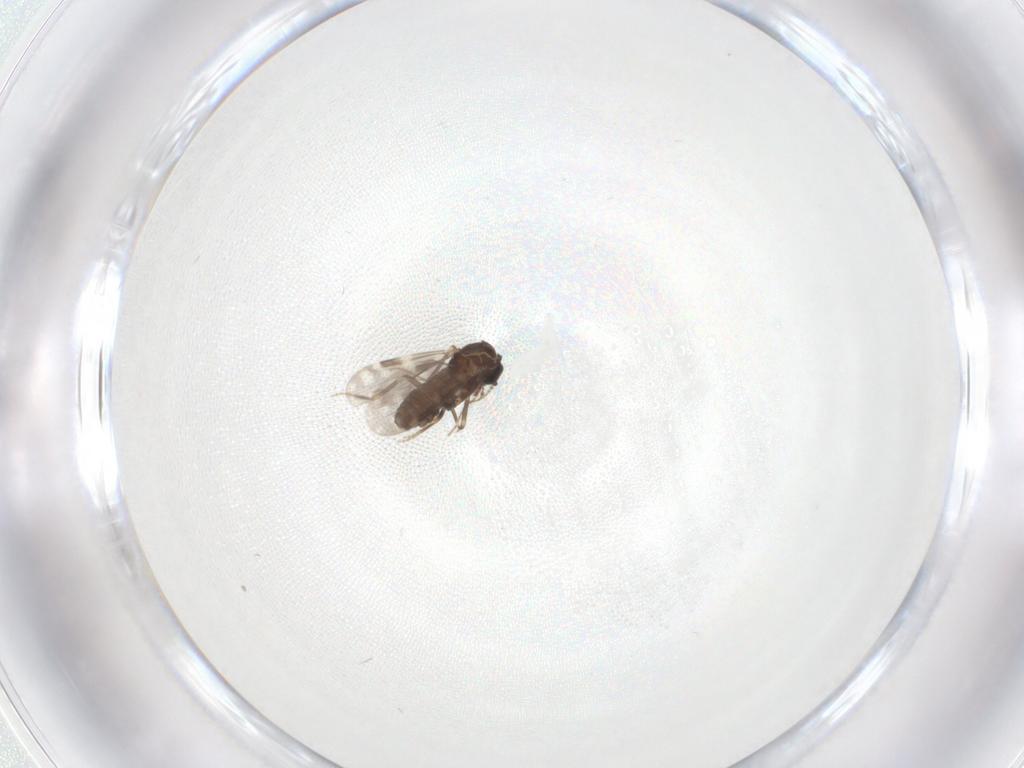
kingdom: Animalia
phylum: Arthropoda
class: Insecta
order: Diptera
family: Ceratopogonidae
